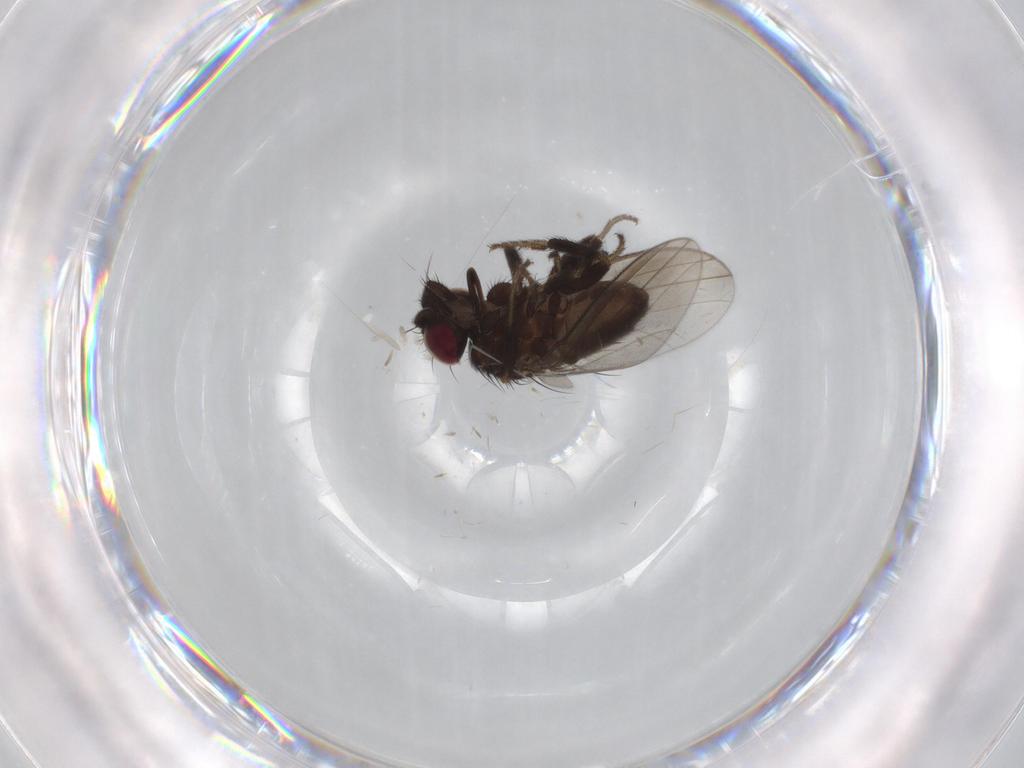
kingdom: Animalia
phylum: Arthropoda
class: Insecta
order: Diptera
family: Milichiidae
